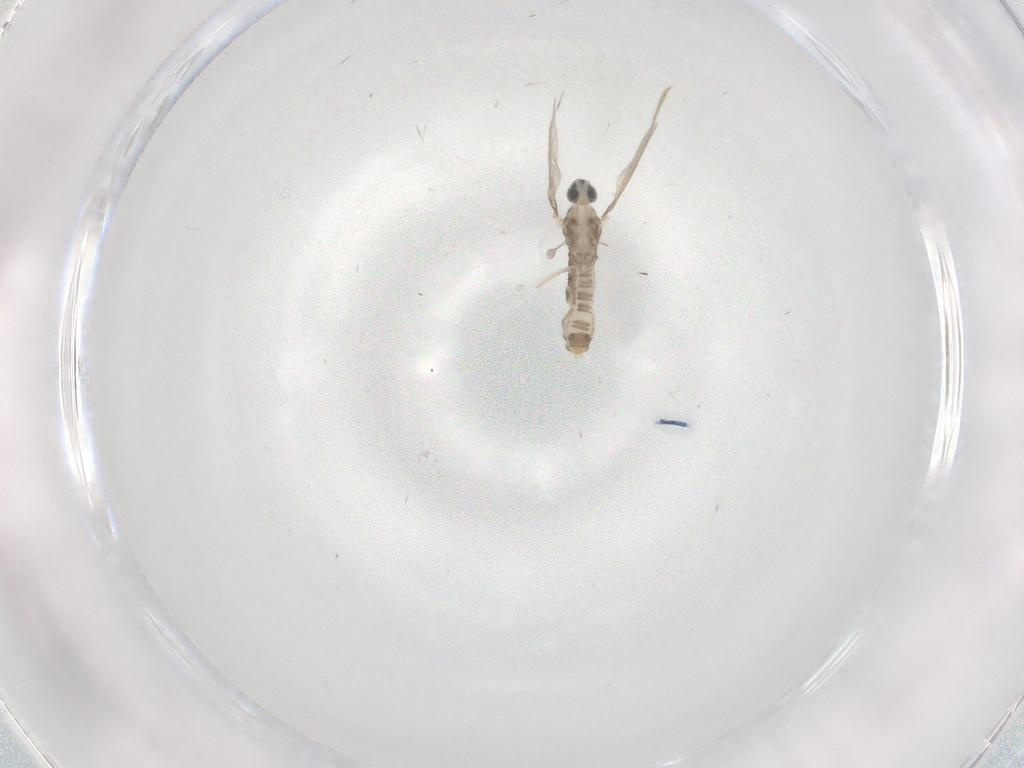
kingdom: Animalia
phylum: Arthropoda
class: Insecta
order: Diptera
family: Cecidomyiidae
